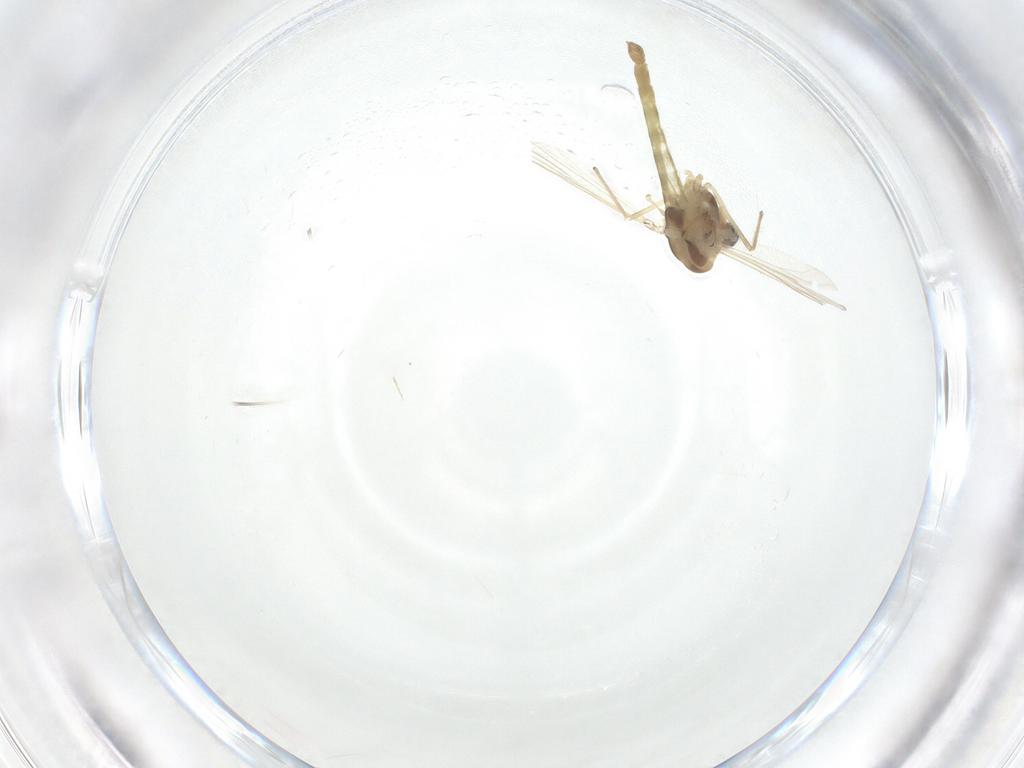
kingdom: Animalia
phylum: Arthropoda
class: Insecta
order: Diptera
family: Chironomidae
